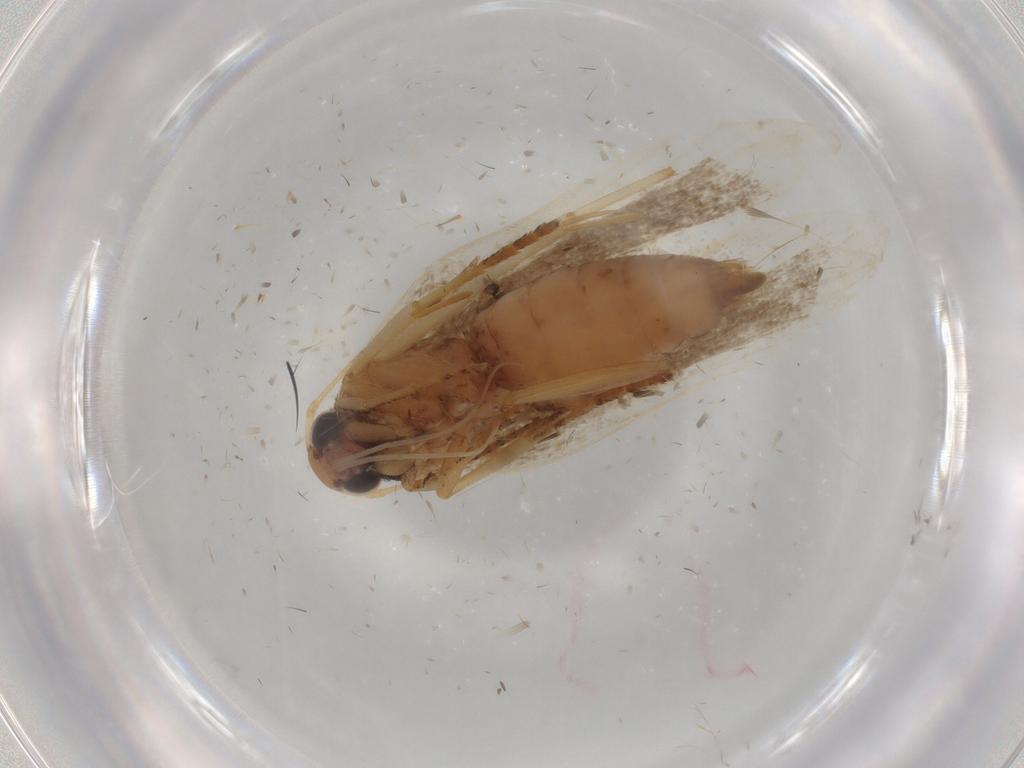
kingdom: Animalia
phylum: Arthropoda
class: Insecta
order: Lepidoptera
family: Gelechiidae
